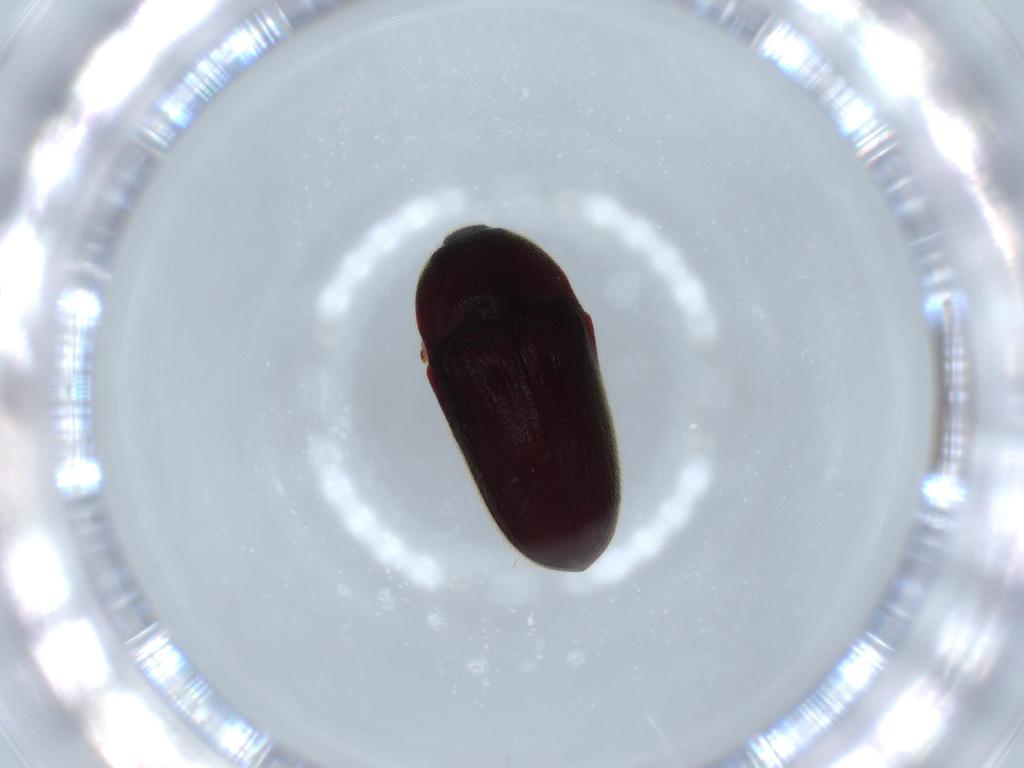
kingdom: Animalia
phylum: Arthropoda
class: Insecta
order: Coleoptera
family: Throscidae
